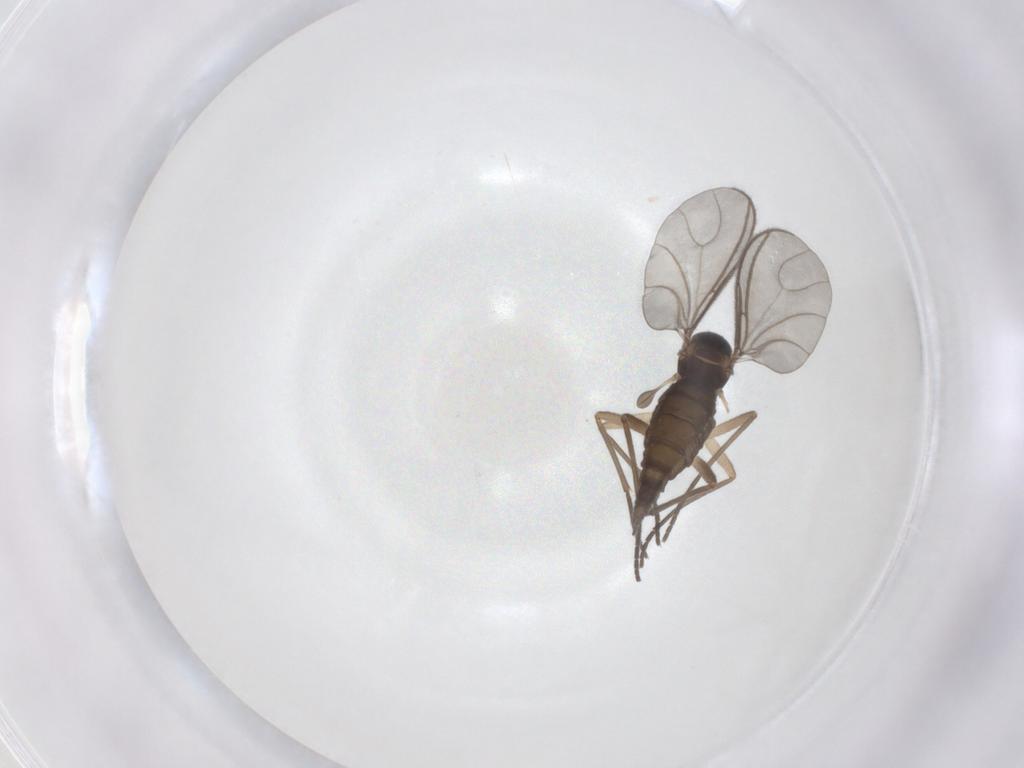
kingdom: Animalia
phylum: Arthropoda
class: Insecta
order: Diptera
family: Sciaridae
